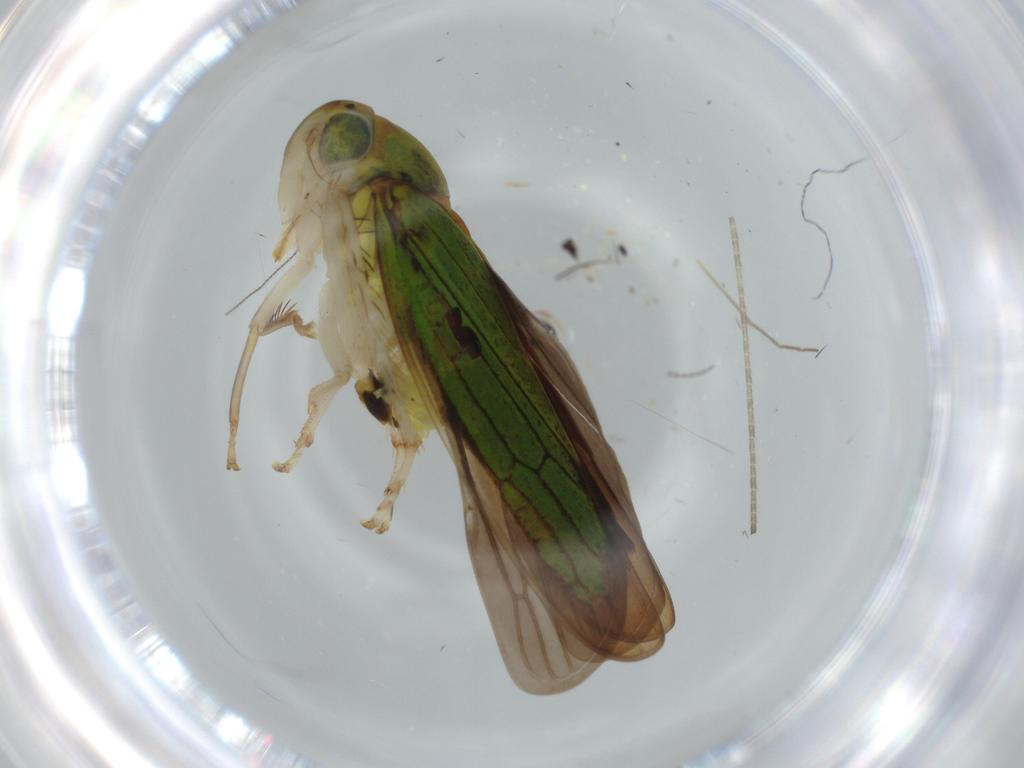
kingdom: Animalia
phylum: Arthropoda
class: Insecta
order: Hemiptera
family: Cicadellidae
